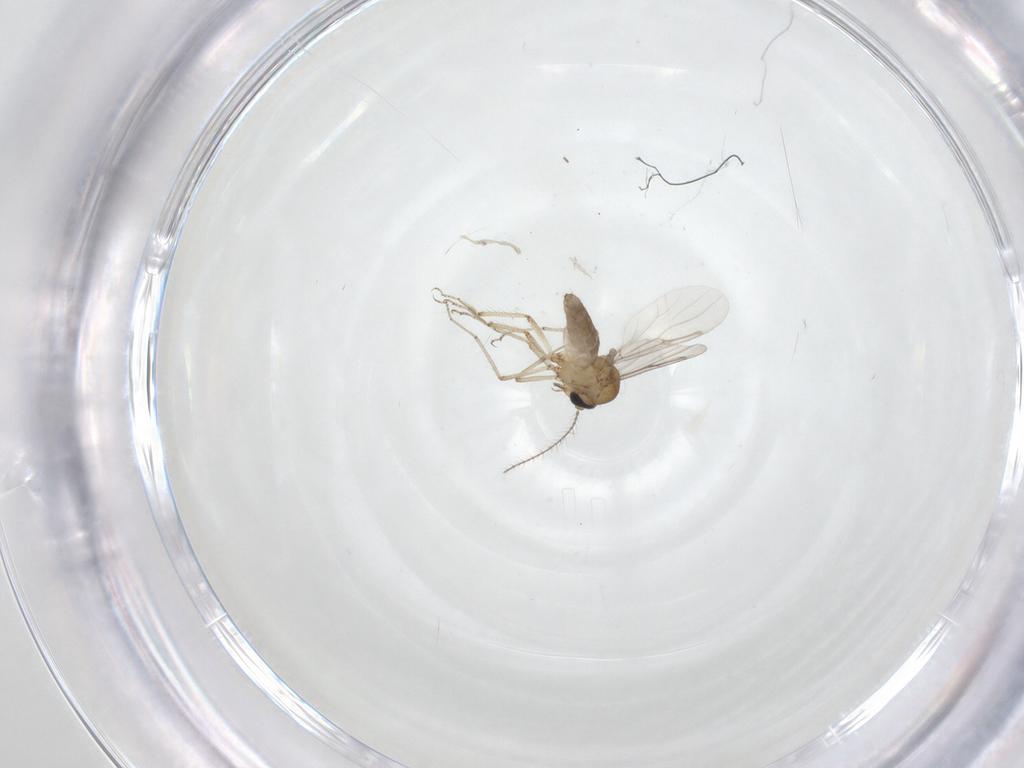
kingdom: Animalia
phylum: Arthropoda
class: Insecta
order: Diptera
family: Ceratopogonidae
